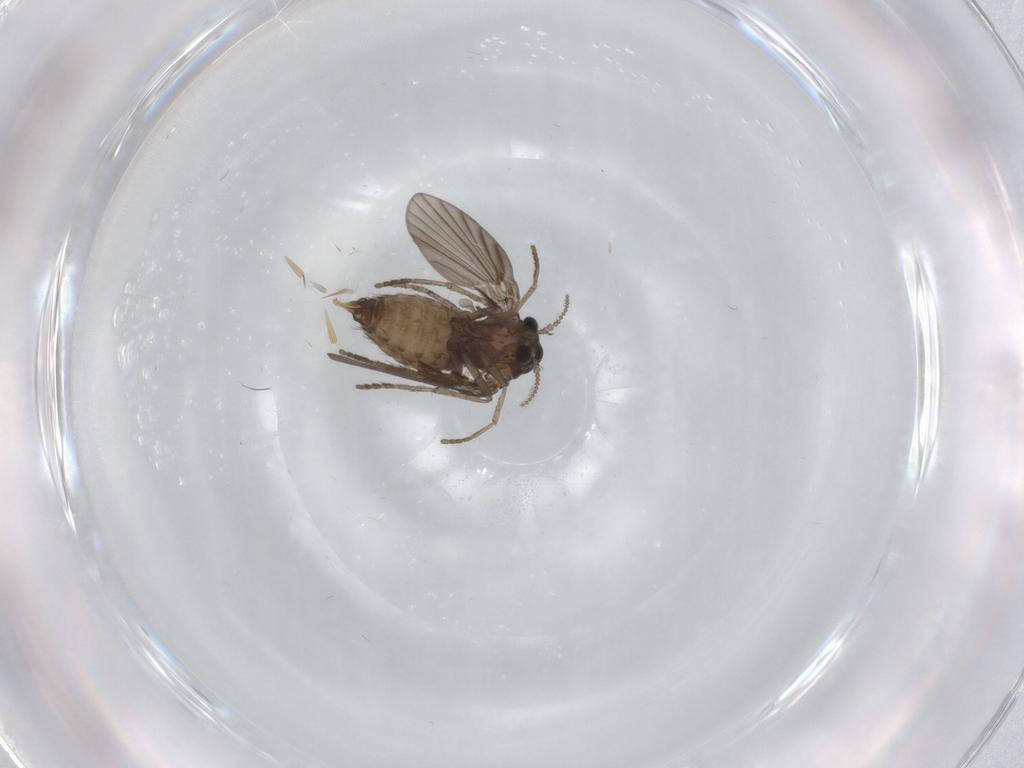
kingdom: Animalia
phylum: Arthropoda
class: Insecta
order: Diptera
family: Psychodidae
